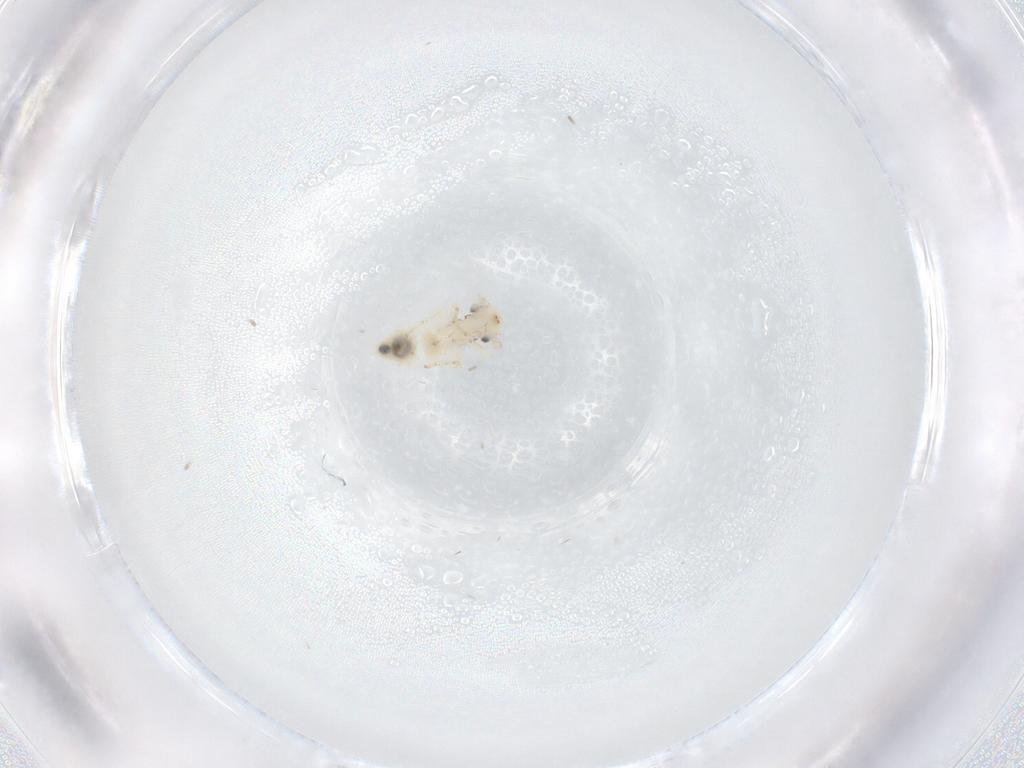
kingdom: Animalia
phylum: Arthropoda
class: Insecta
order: Psocodea
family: Lepidopsocidae
